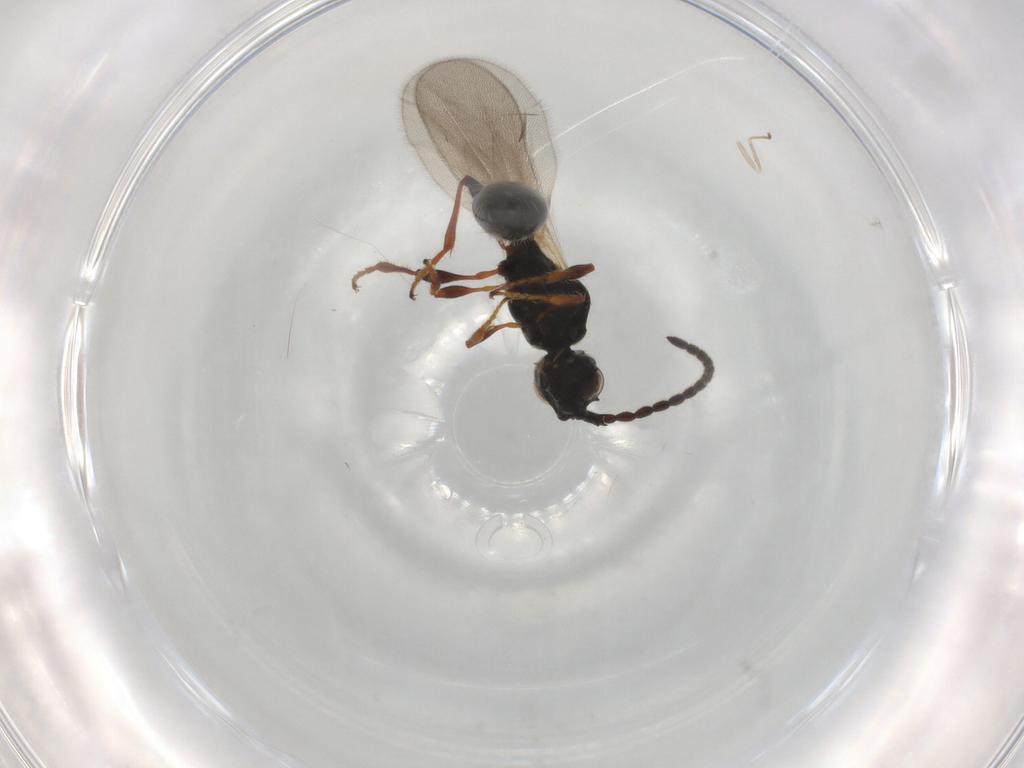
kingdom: Animalia
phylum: Arthropoda
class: Insecta
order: Hymenoptera
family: Diapriidae
